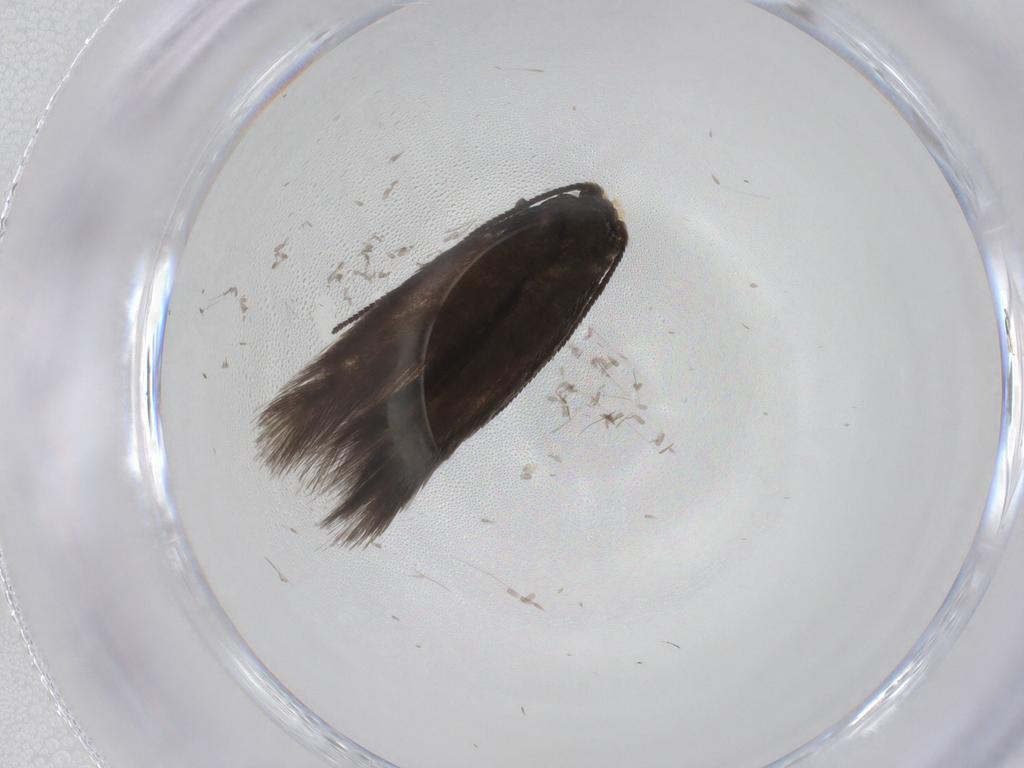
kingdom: Animalia
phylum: Arthropoda
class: Insecta
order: Lepidoptera
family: Nepticulidae
